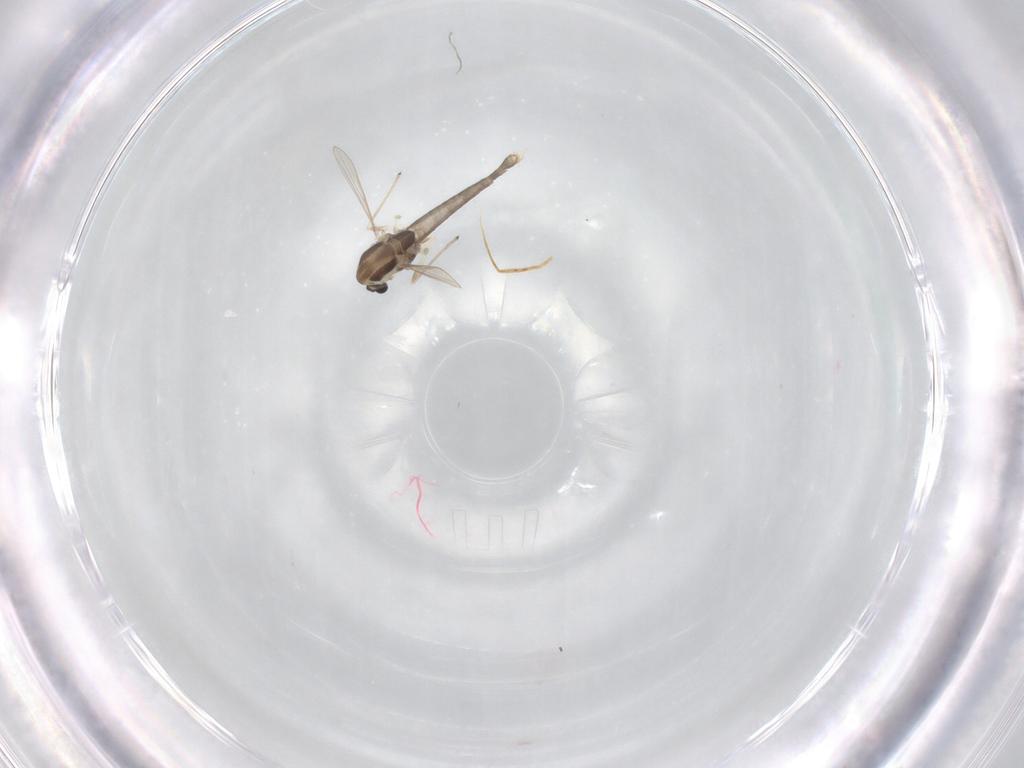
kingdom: Animalia
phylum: Arthropoda
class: Insecta
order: Diptera
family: Chironomidae
